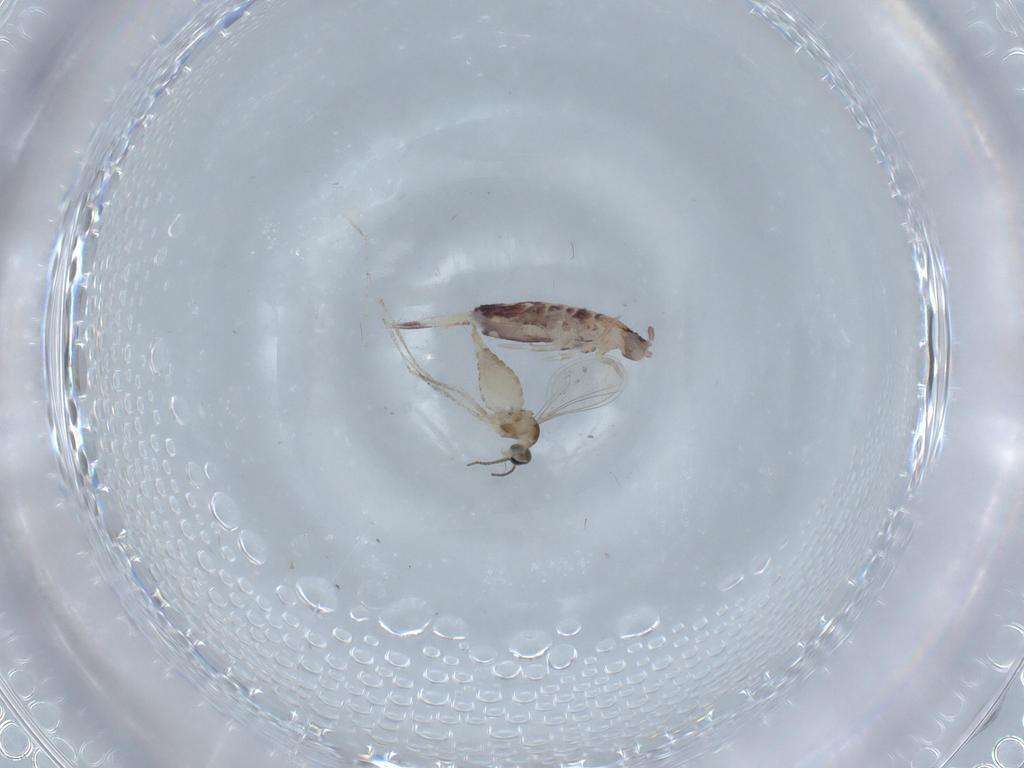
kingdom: Animalia
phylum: Arthropoda
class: Insecta
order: Diptera
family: Cecidomyiidae
